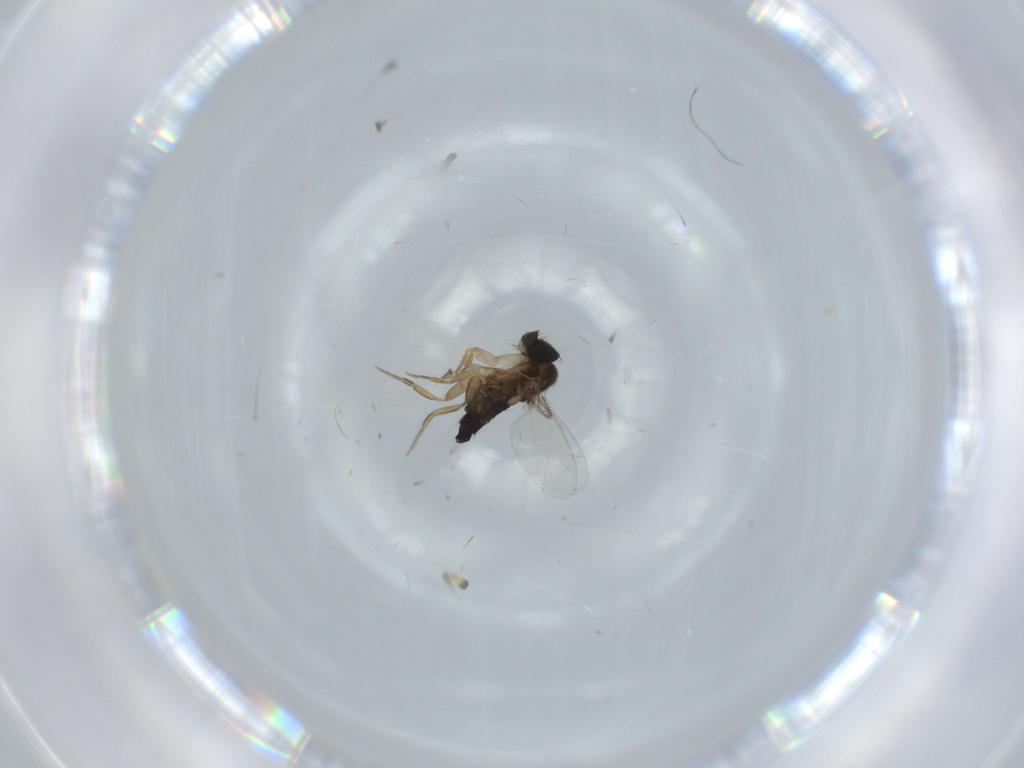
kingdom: Animalia
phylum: Arthropoda
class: Insecta
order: Diptera
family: Phoridae
